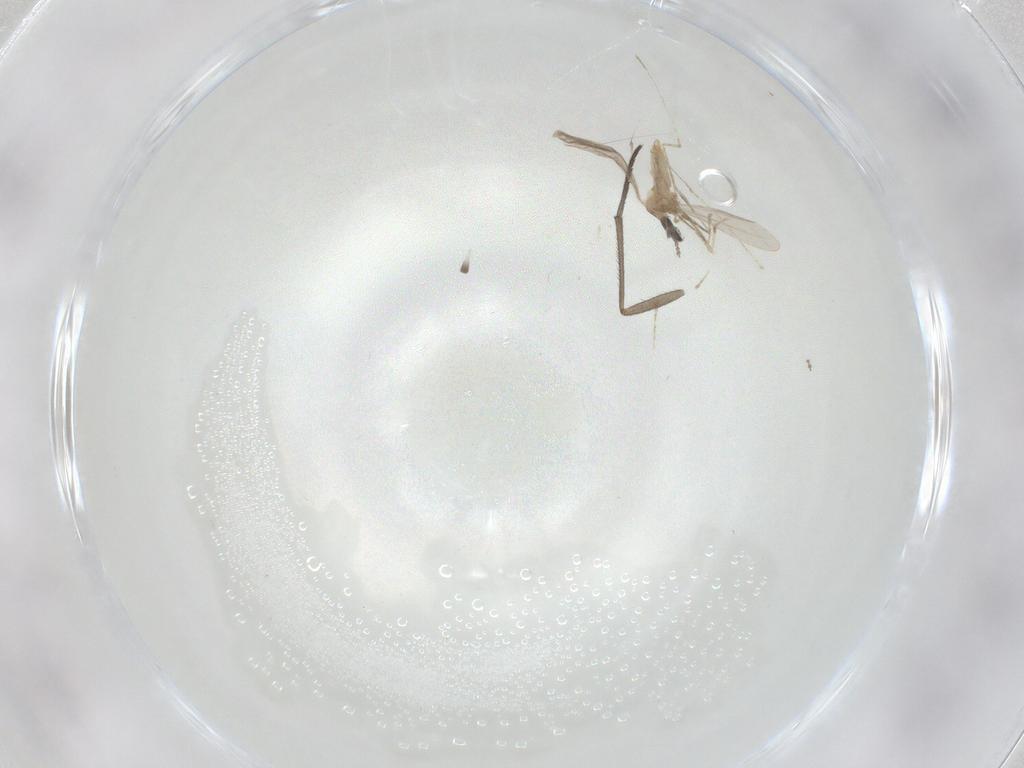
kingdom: Animalia
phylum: Arthropoda
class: Insecta
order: Diptera
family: Cecidomyiidae
